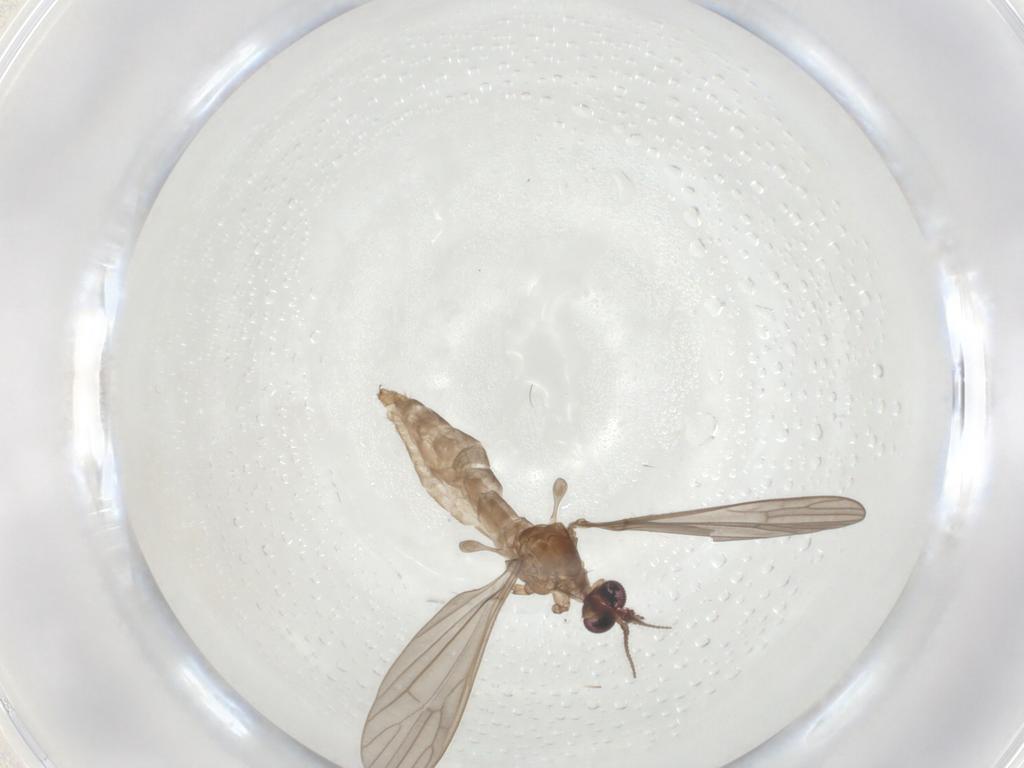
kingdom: Animalia
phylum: Arthropoda
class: Insecta
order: Diptera
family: Limoniidae
